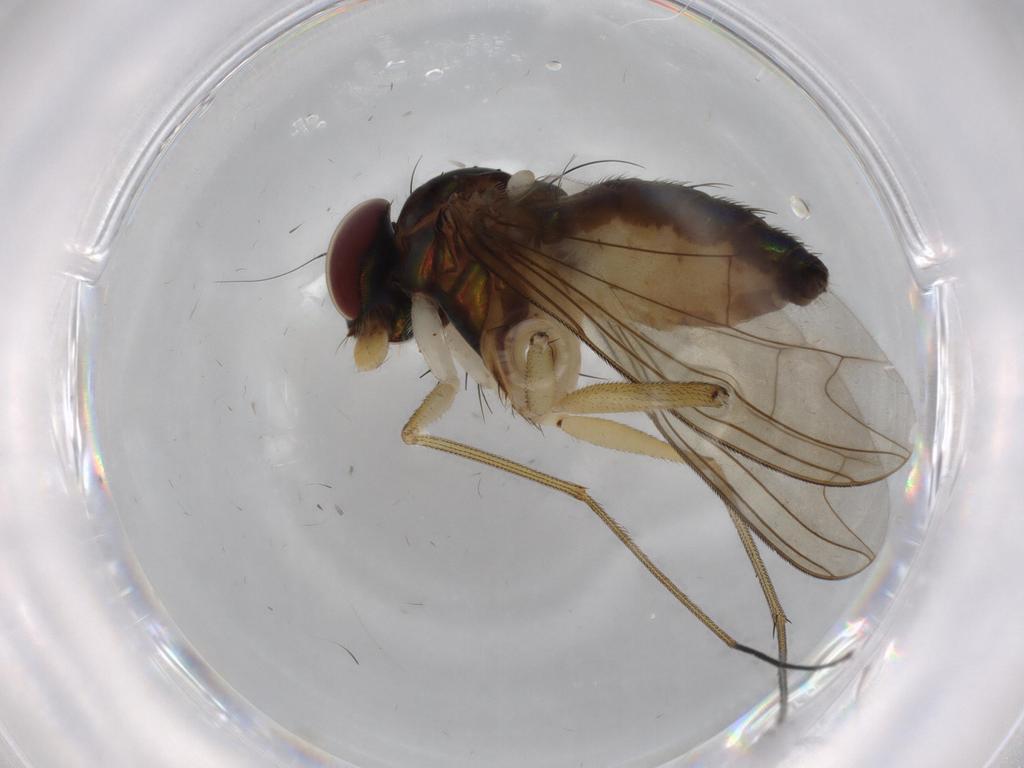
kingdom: Animalia
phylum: Arthropoda
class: Insecta
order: Diptera
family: Dolichopodidae
